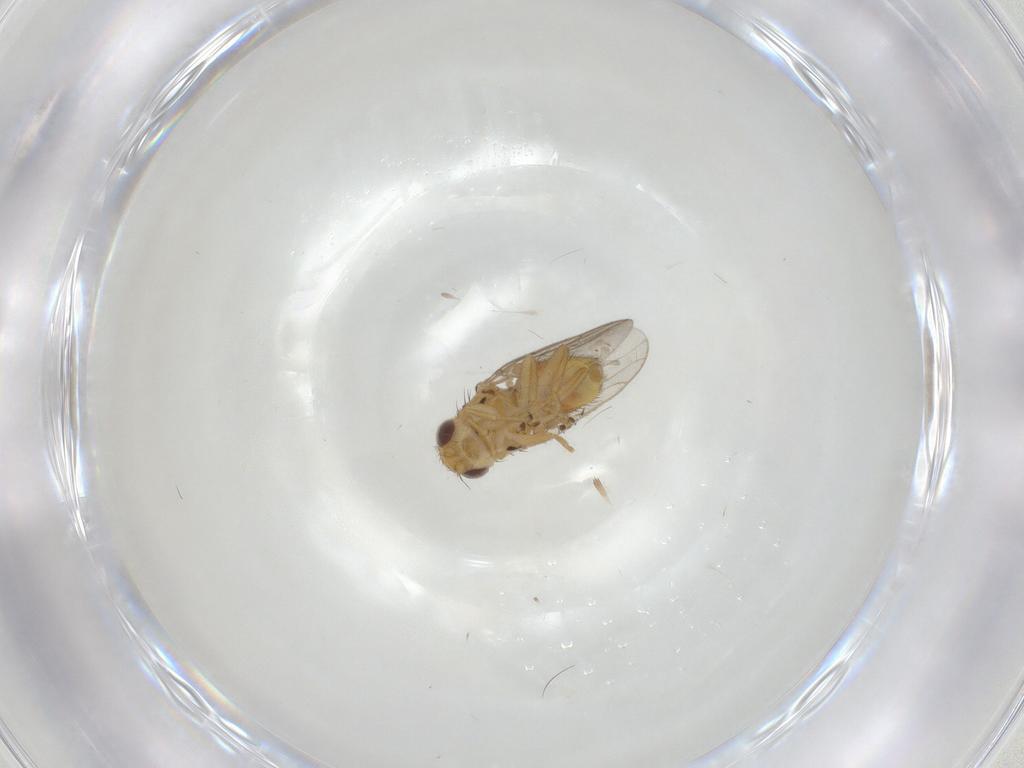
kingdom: Animalia
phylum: Arthropoda
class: Insecta
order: Diptera
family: Chloropidae
